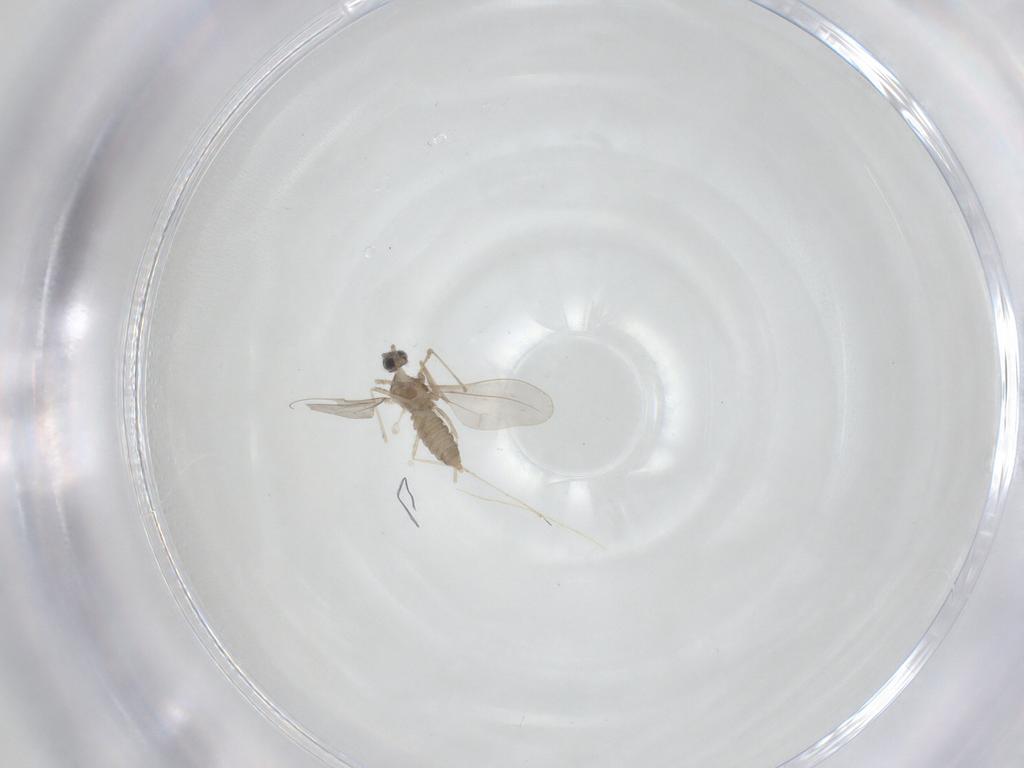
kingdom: Animalia
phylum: Arthropoda
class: Insecta
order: Diptera
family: Cecidomyiidae
